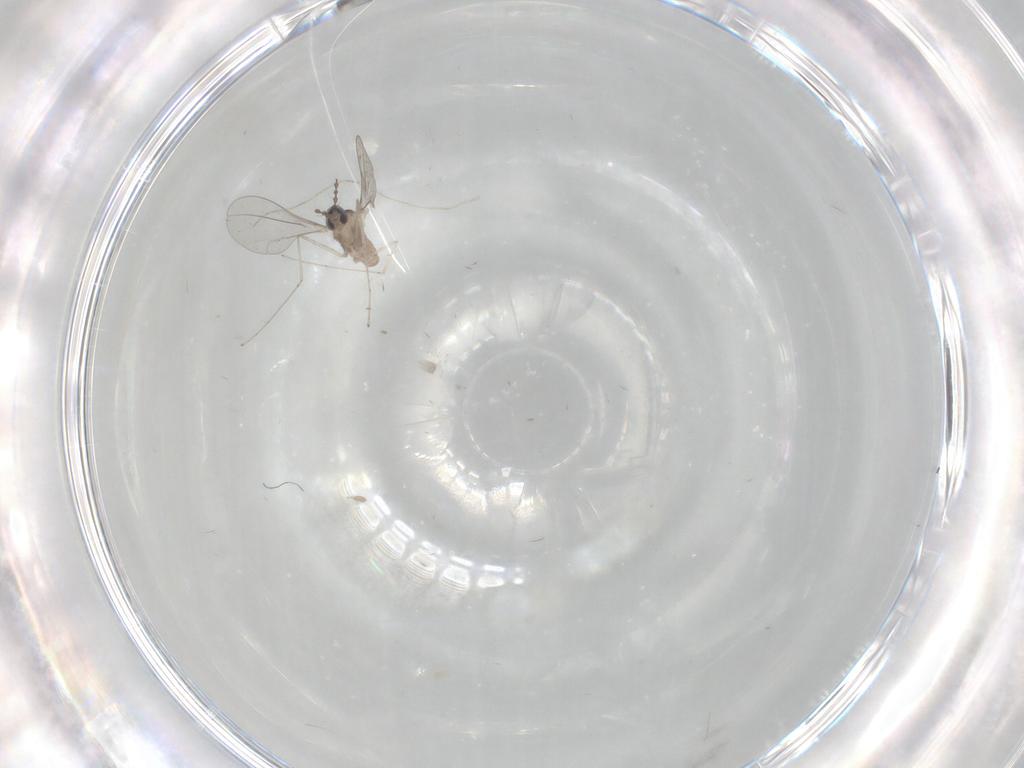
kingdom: Animalia
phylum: Arthropoda
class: Insecta
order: Diptera
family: Cecidomyiidae
